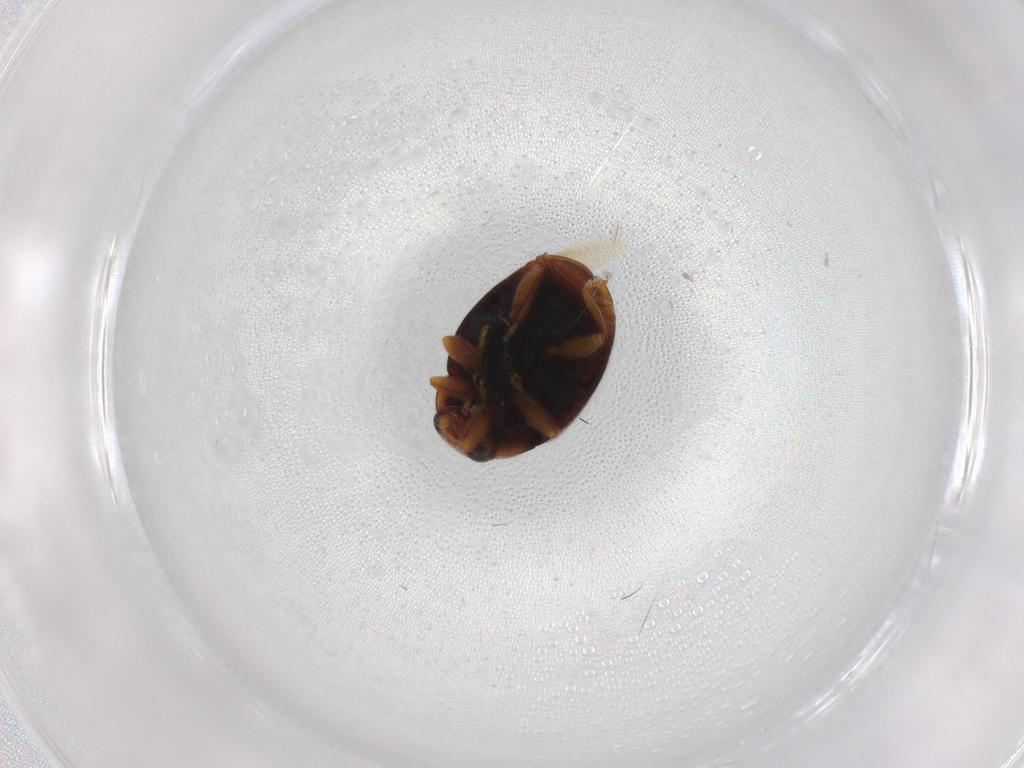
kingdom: Animalia
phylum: Arthropoda
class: Insecta
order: Coleoptera
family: Coccinellidae
